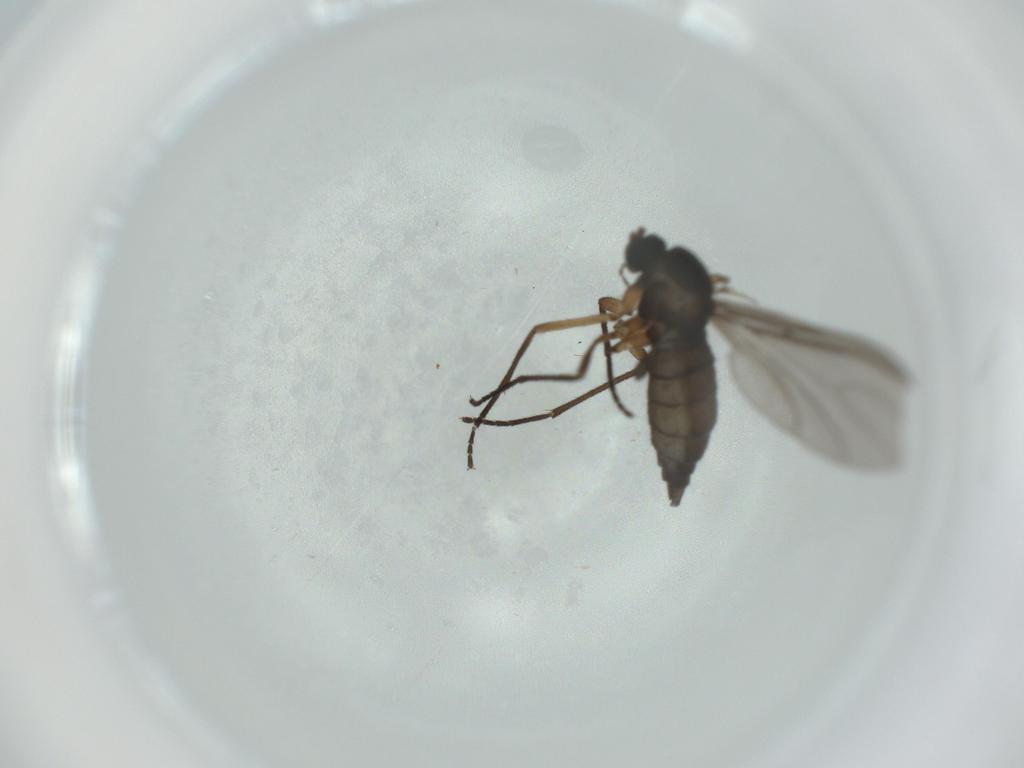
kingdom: Animalia
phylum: Arthropoda
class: Insecta
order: Diptera
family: Sciaridae
